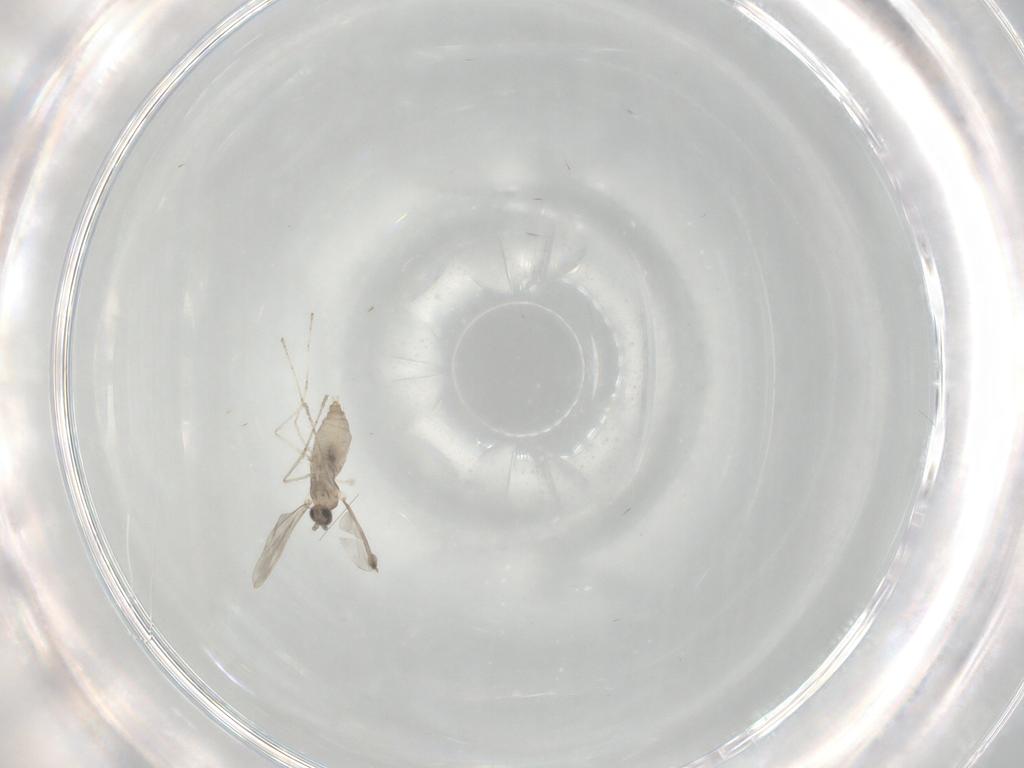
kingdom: Animalia
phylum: Arthropoda
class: Insecta
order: Diptera
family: Cecidomyiidae
